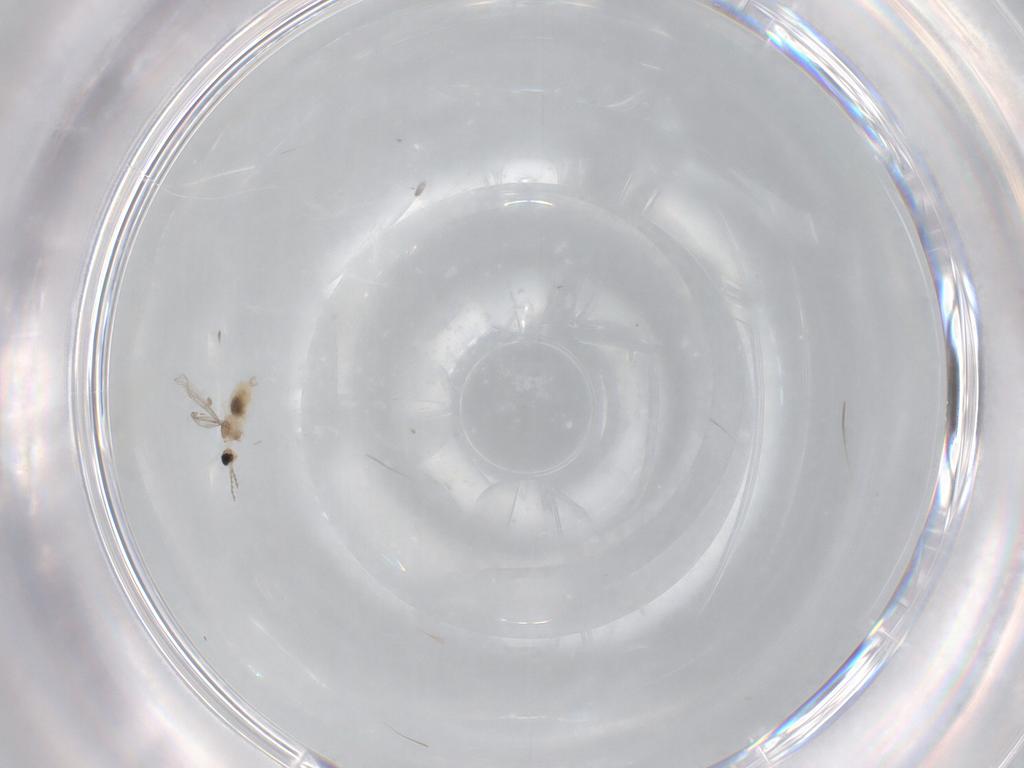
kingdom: Animalia
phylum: Arthropoda
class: Insecta
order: Diptera
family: Cecidomyiidae
